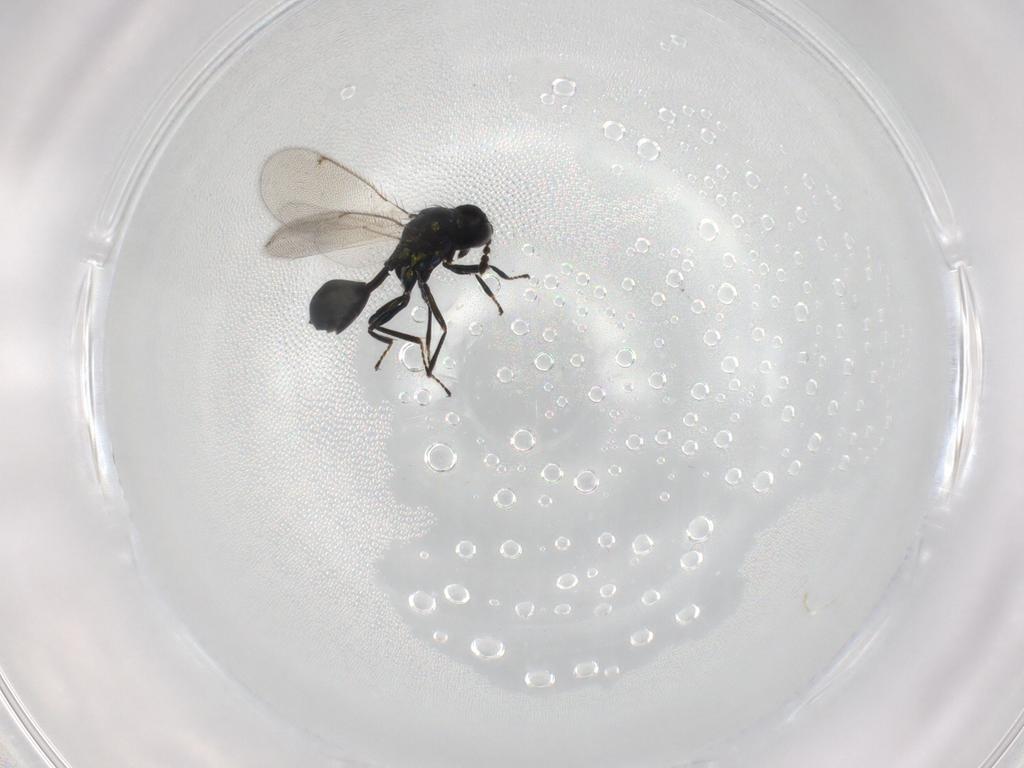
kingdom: Animalia
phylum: Arthropoda
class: Insecta
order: Hymenoptera
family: Eulophidae
